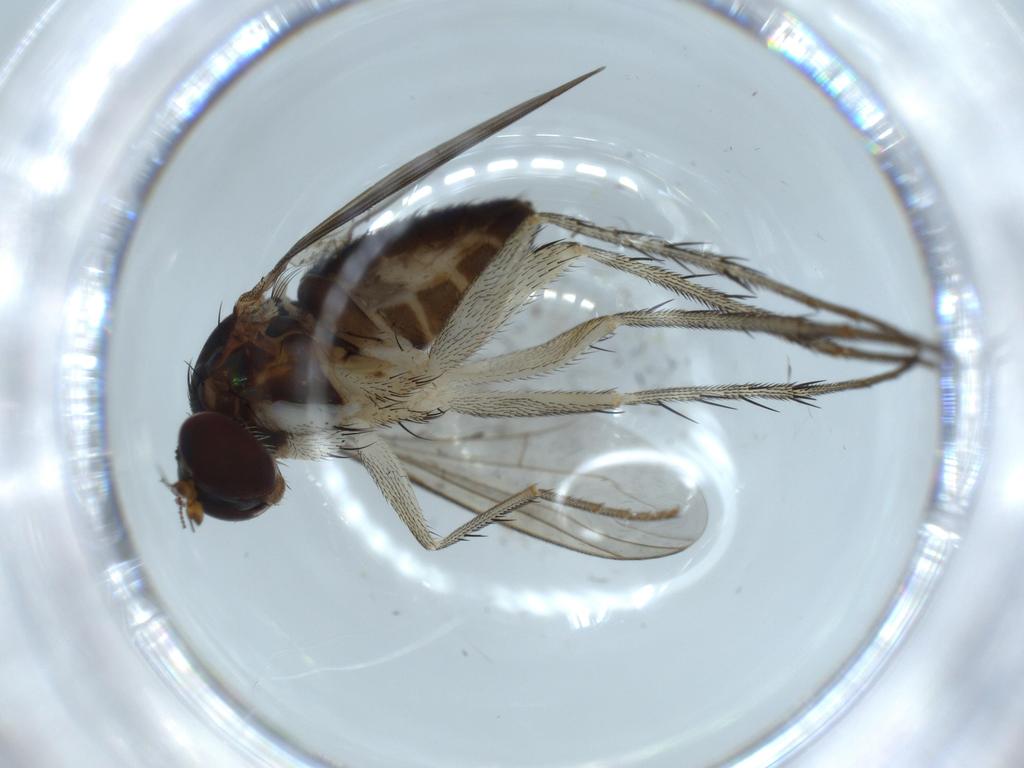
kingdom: Animalia
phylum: Arthropoda
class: Insecta
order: Diptera
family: Dolichopodidae
